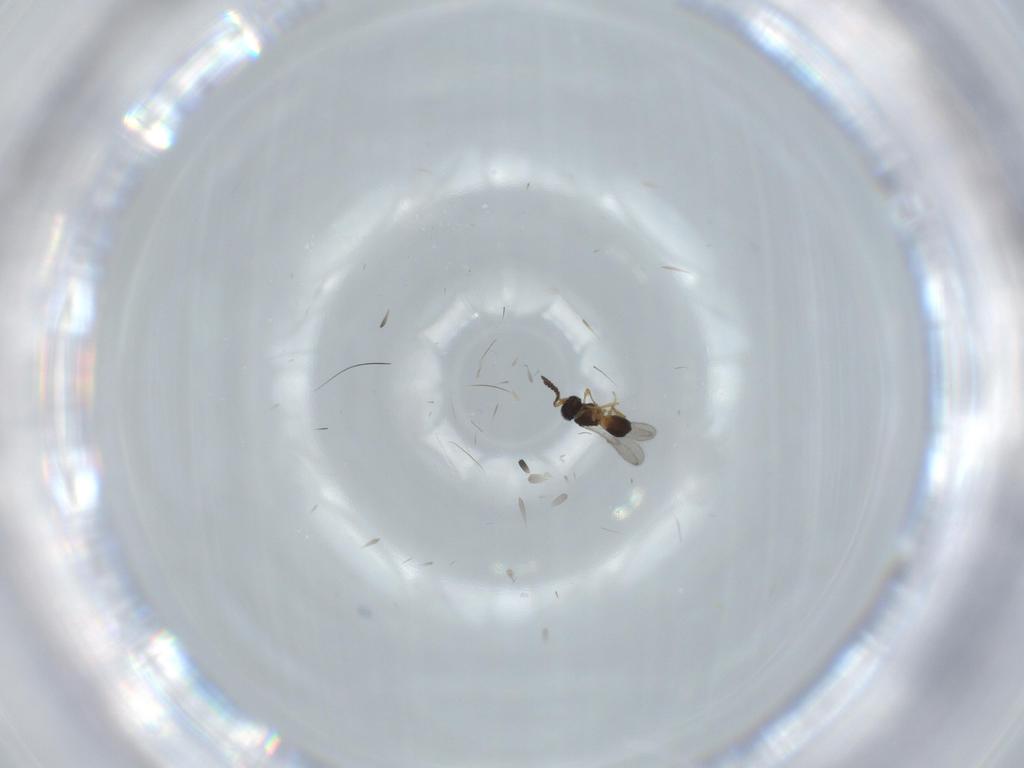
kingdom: Animalia
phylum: Arthropoda
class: Insecta
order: Hymenoptera
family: Scelionidae
